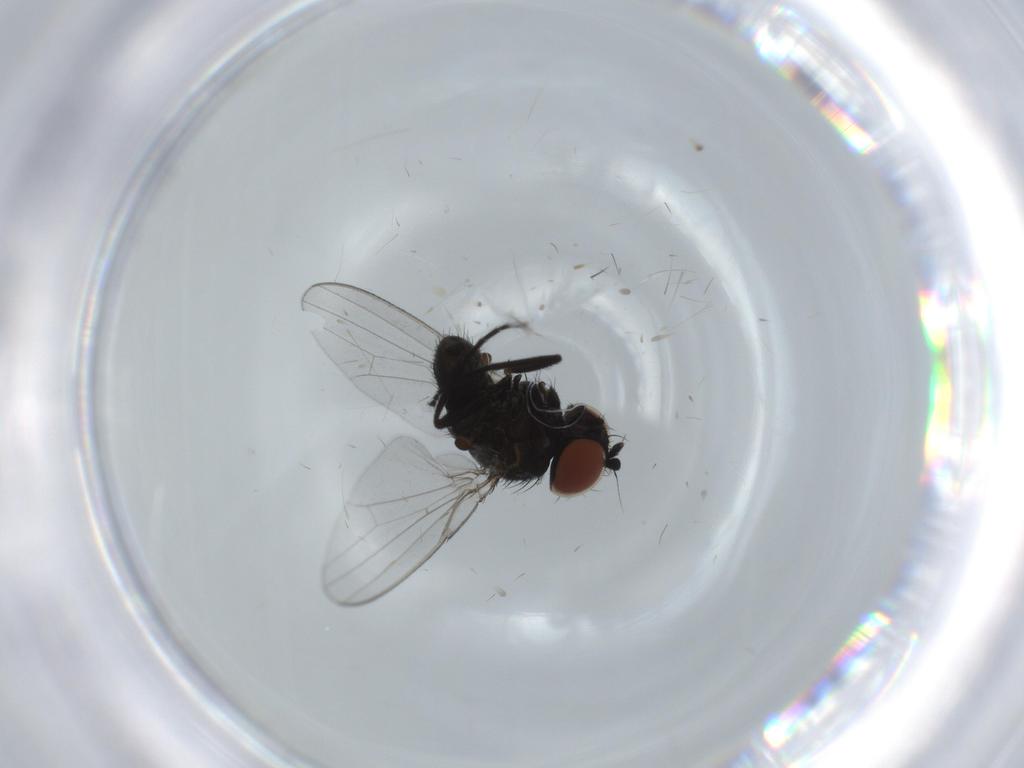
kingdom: Animalia
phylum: Arthropoda
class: Insecta
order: Diptera
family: Milichiidae
